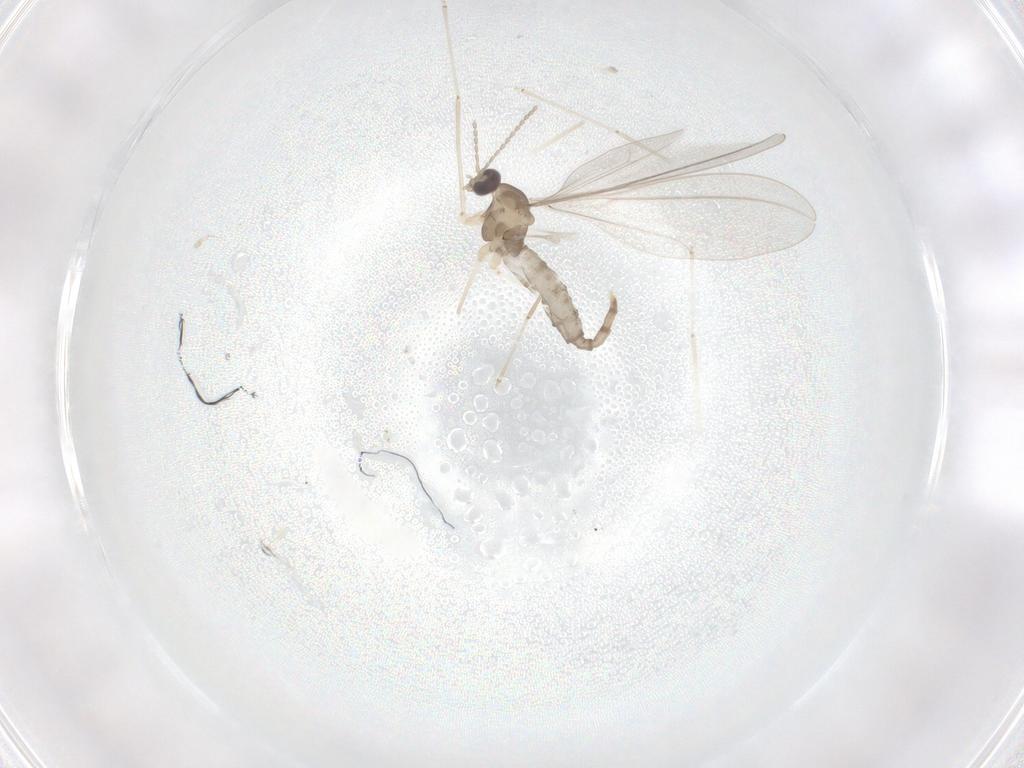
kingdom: Animalia
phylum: Arthropoda
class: Insecta
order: Diptera
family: Cecidomyiidae
